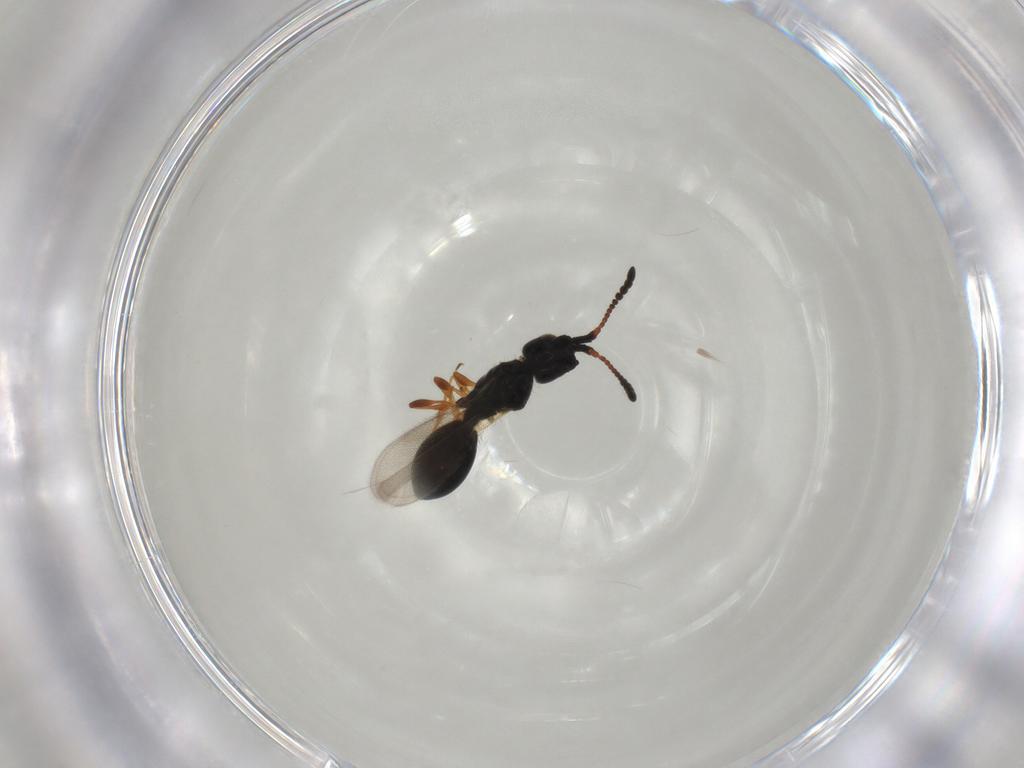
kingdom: Animalia
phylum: Arthropoda
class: Insecta
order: Hymenoptera
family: Diapriidae
